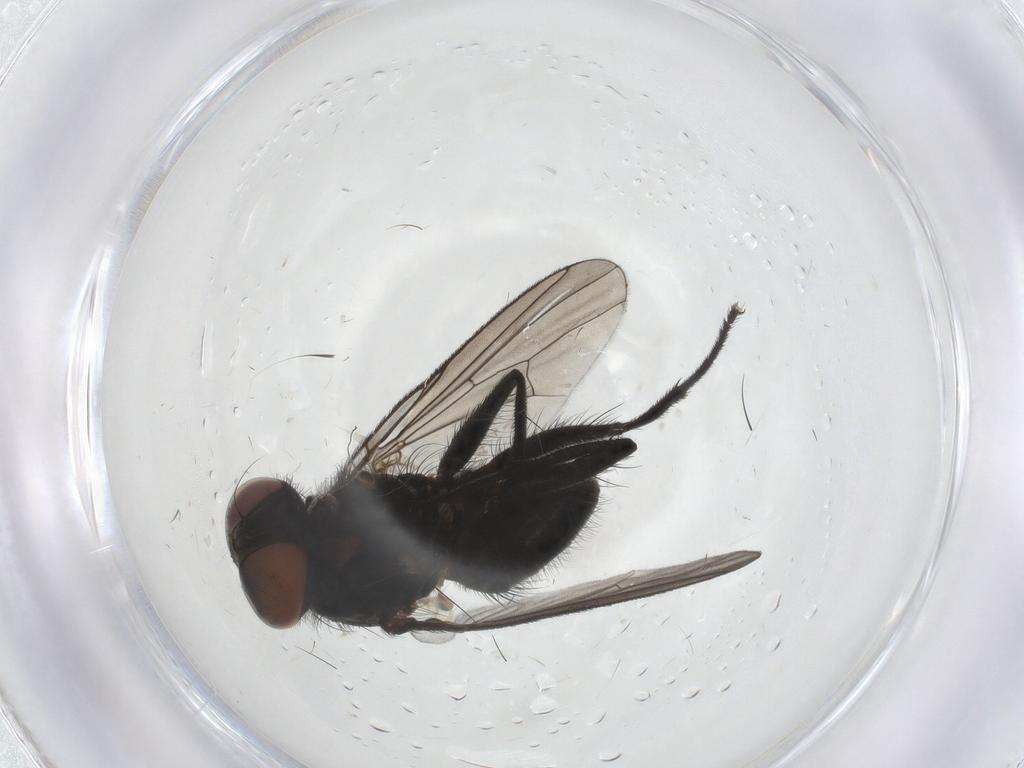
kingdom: Animalia
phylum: Arthropoda
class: Insecta
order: Diptera
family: Muscidae
